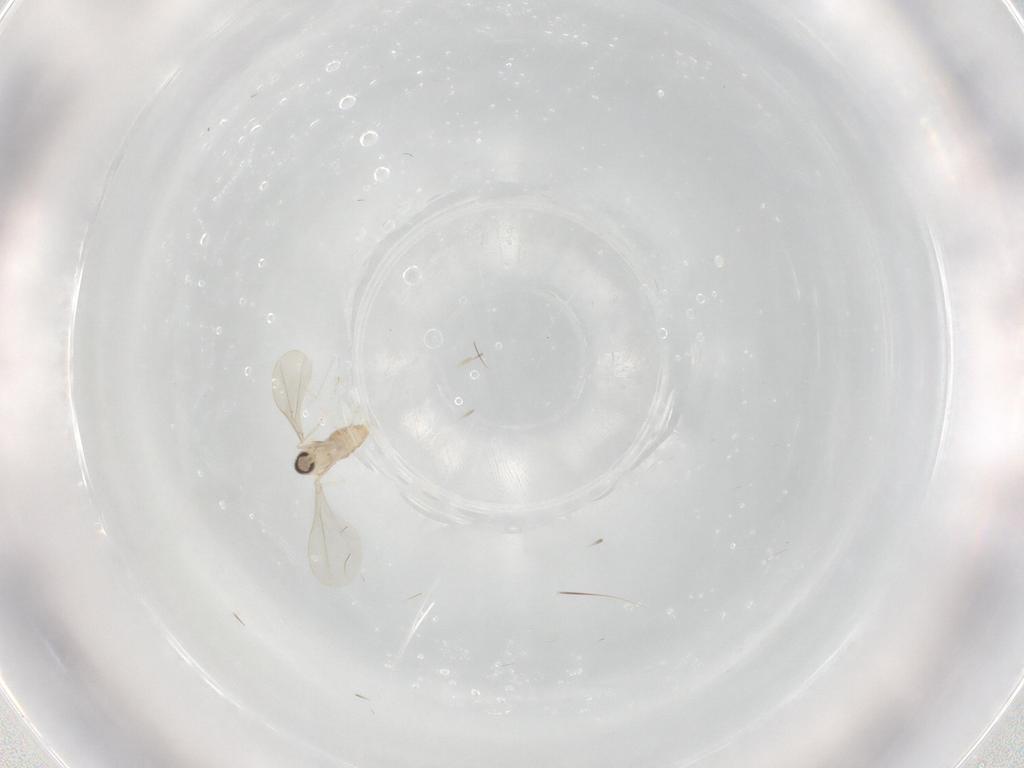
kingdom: Animalia
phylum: Arthropoda
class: Insecta
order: Diptera
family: Cecidomyiidae
